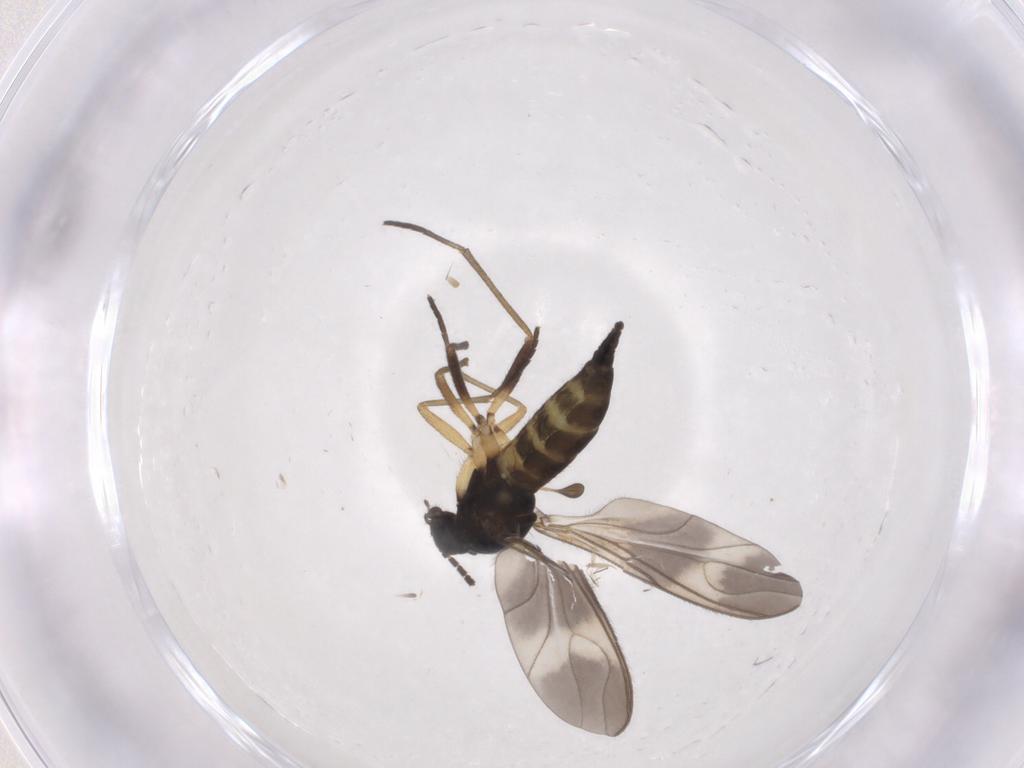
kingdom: Animalia
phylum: Arthropoda
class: Insecta
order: Diptera
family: Sciaridae
